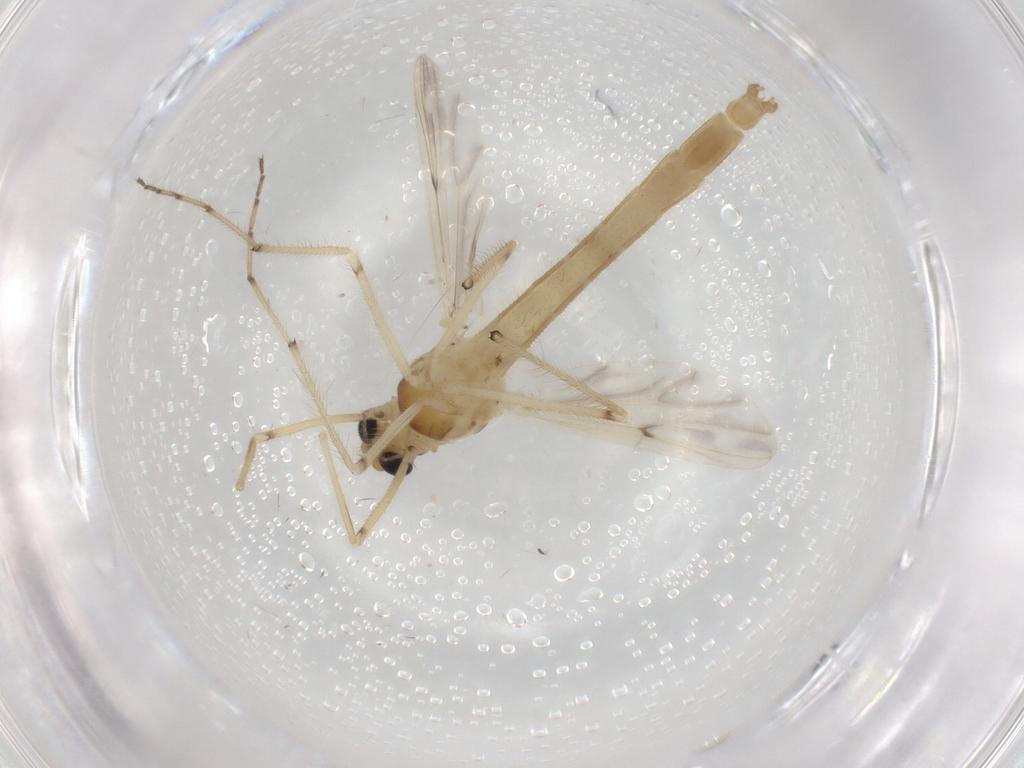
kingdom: Animalia
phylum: Arthropoda
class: Insecta
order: Diptera
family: Chironomidae
